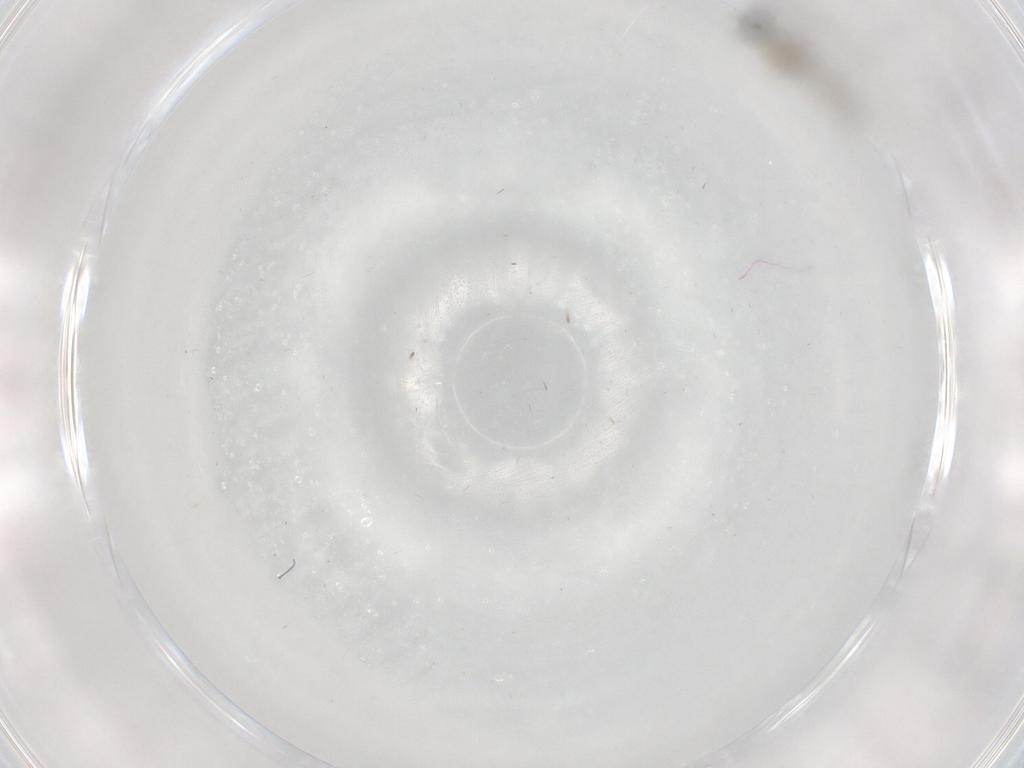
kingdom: Animalia
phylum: Arthropoda
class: Insecta
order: Diptera
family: Cecidomyiidae
